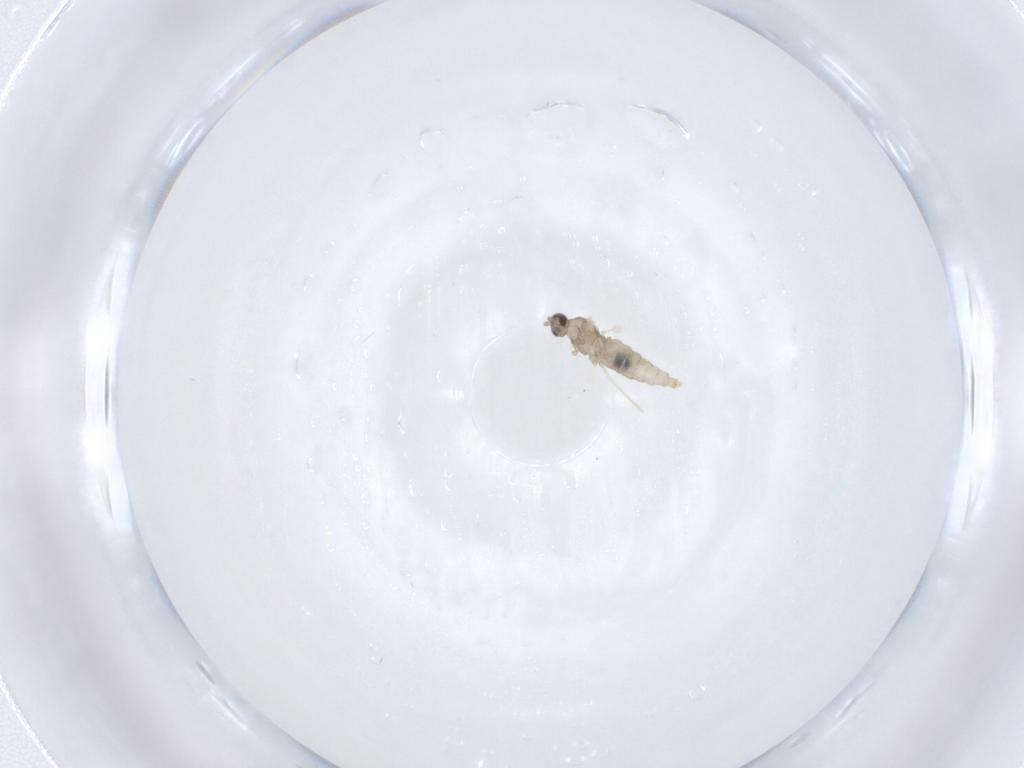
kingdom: Animalia
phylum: Arthropoda
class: Insecta
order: Diptera
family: Cecidomyiidae
